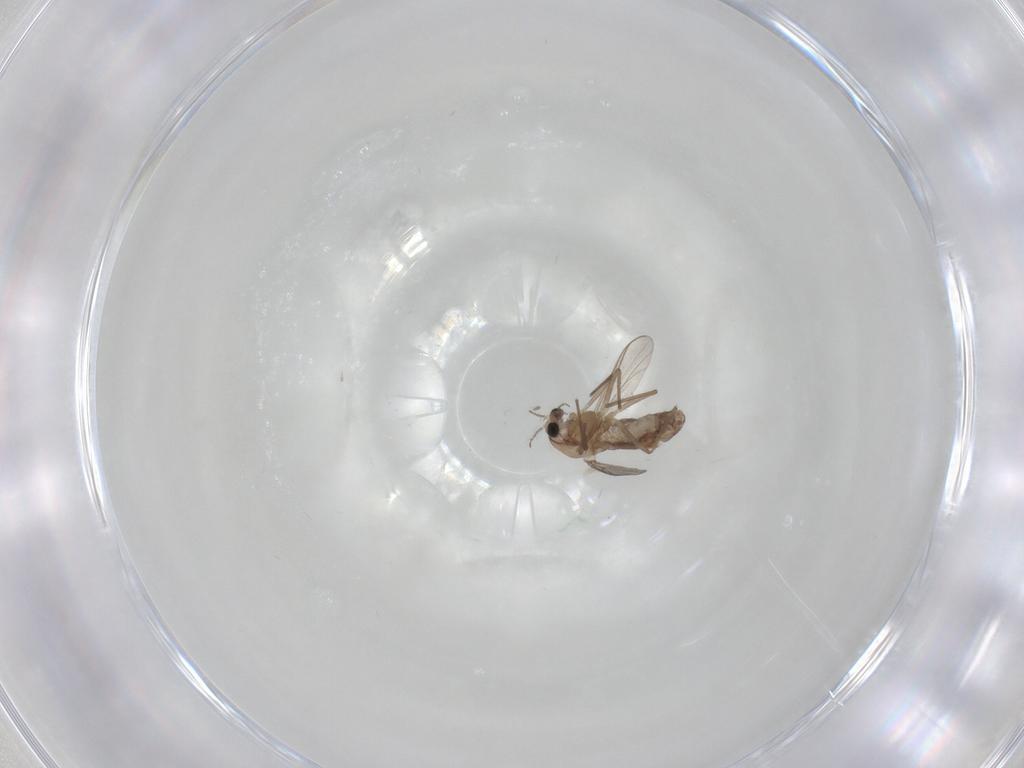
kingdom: Animalia
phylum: Arthropoda
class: Insecta
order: Diptera
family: Chironomidae
